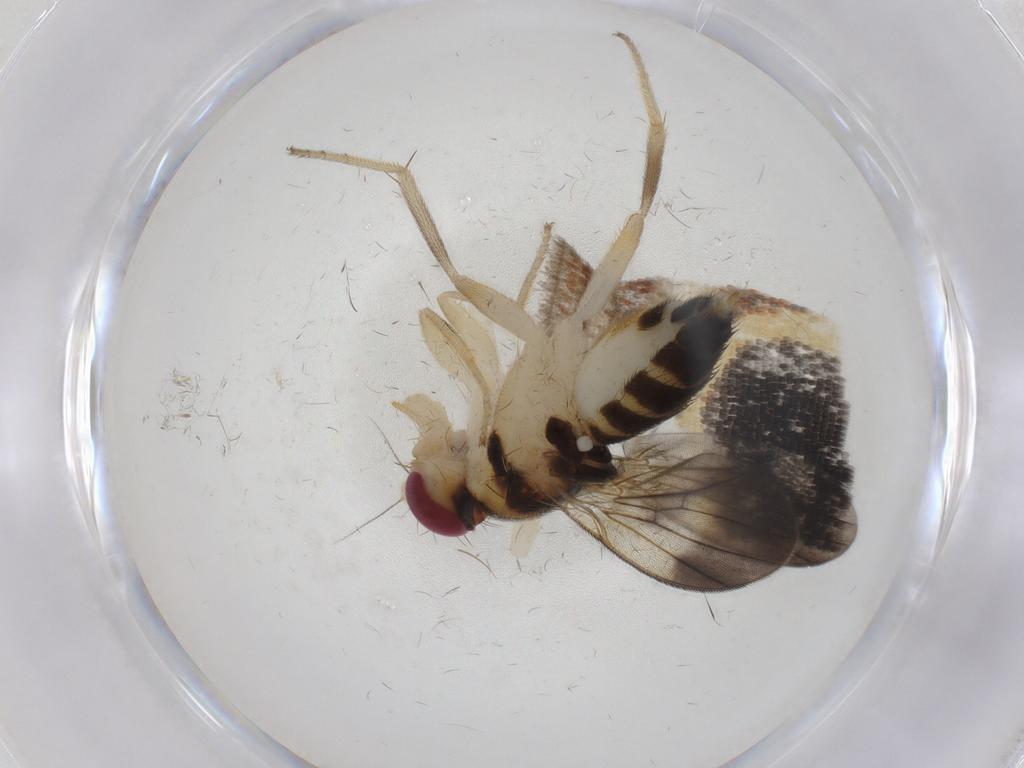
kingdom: Animalia
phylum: Arthropoda
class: Insecta
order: Diptera
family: Clusiidae
